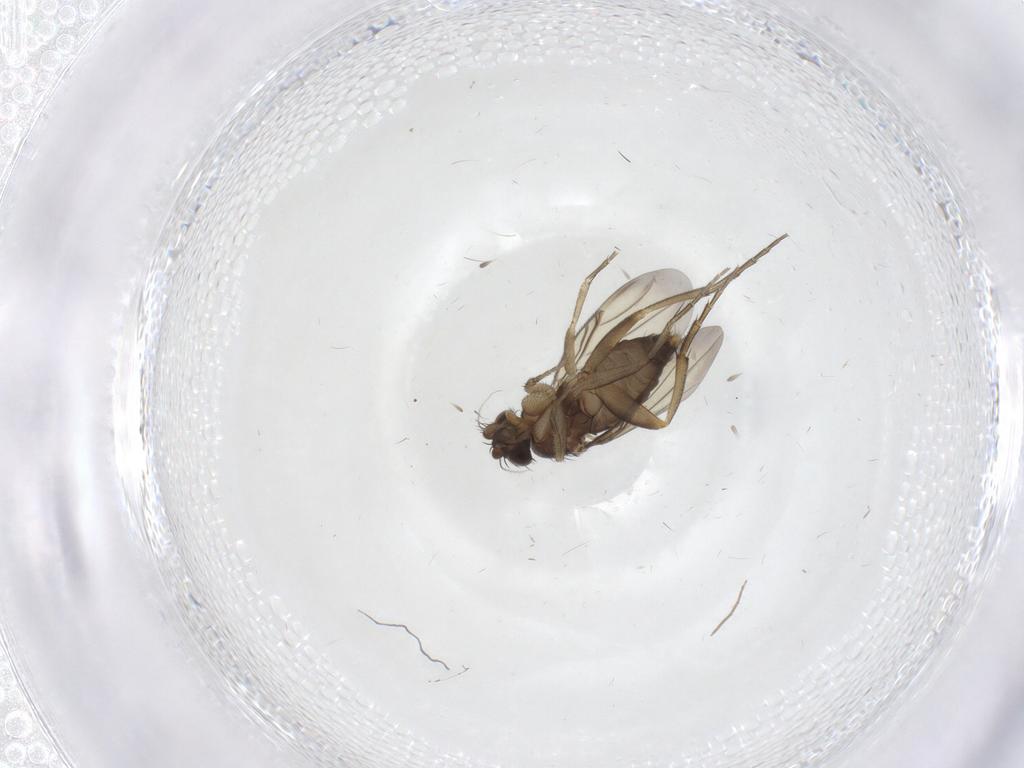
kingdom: Animalia
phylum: Arthropoda
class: Insecta
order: Diptera
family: Phoridae
